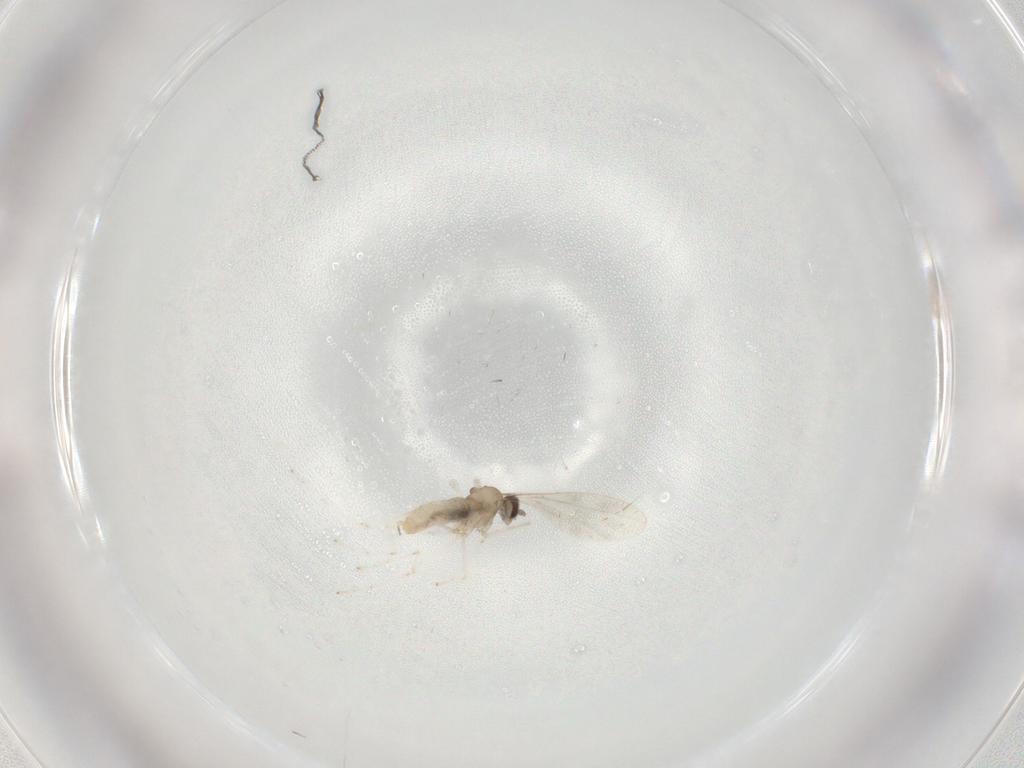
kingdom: Animalia
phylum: Arthropoda
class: Insecta
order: Diptera
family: Cecidomyiidae
